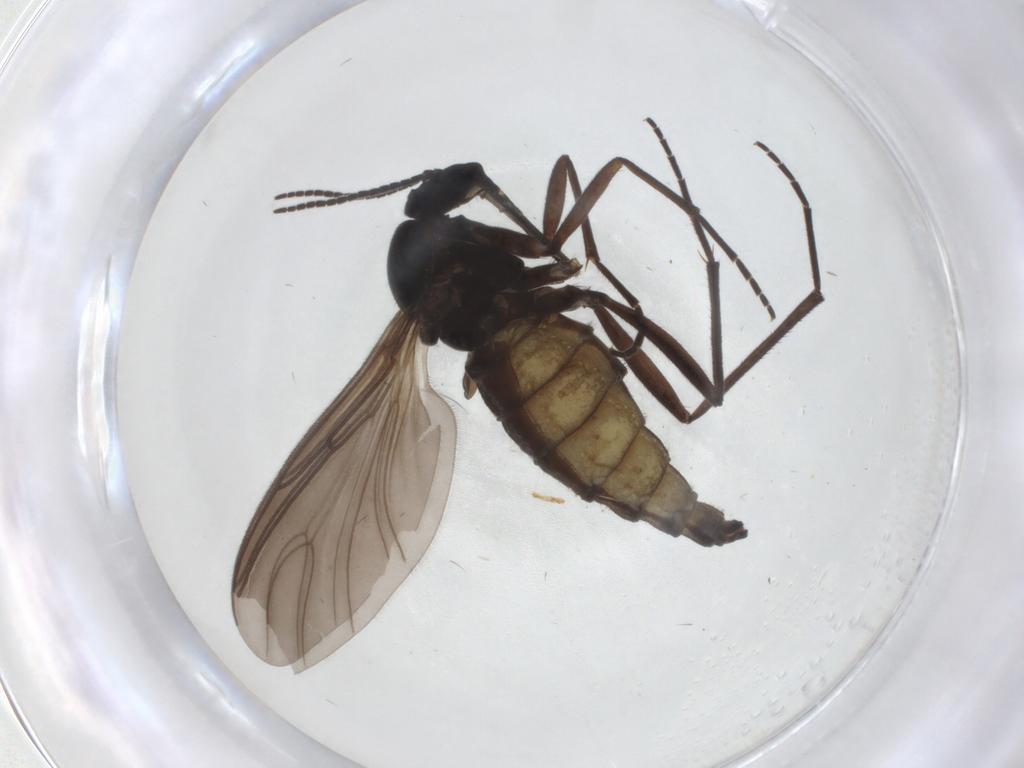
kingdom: Animalia
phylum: Arthropoda
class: Insecta
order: Diptera
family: Sciaridae
